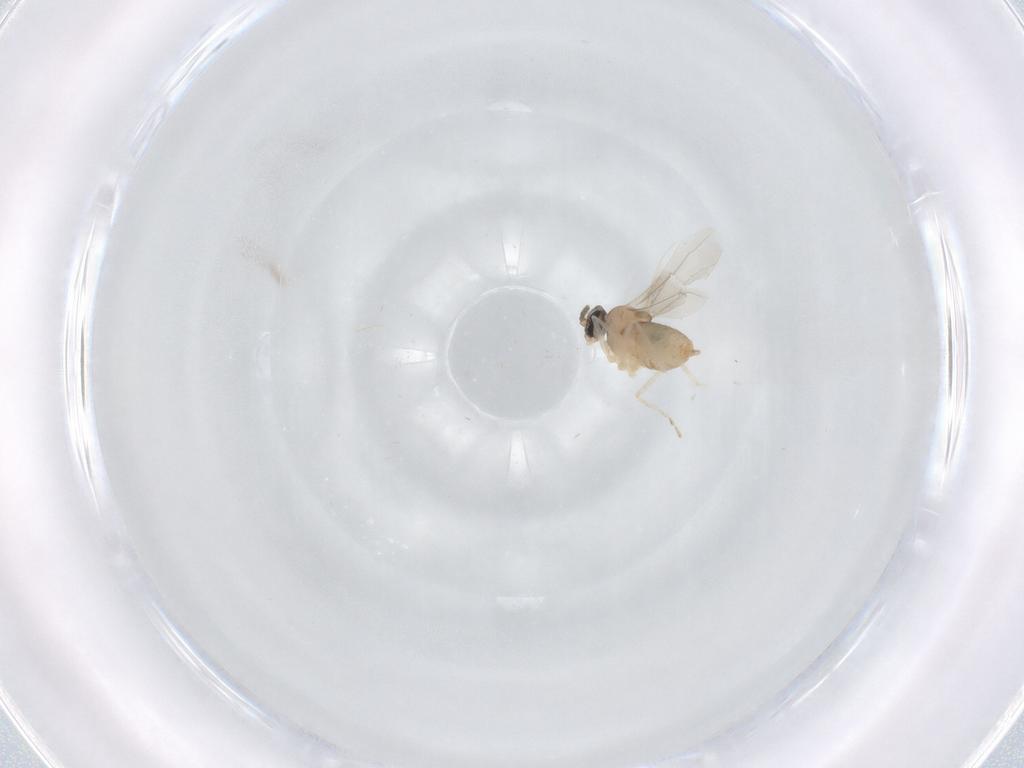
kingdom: Animalia
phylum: Arthropoda
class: Insecta
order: Diptera
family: Cecidomyiidae
